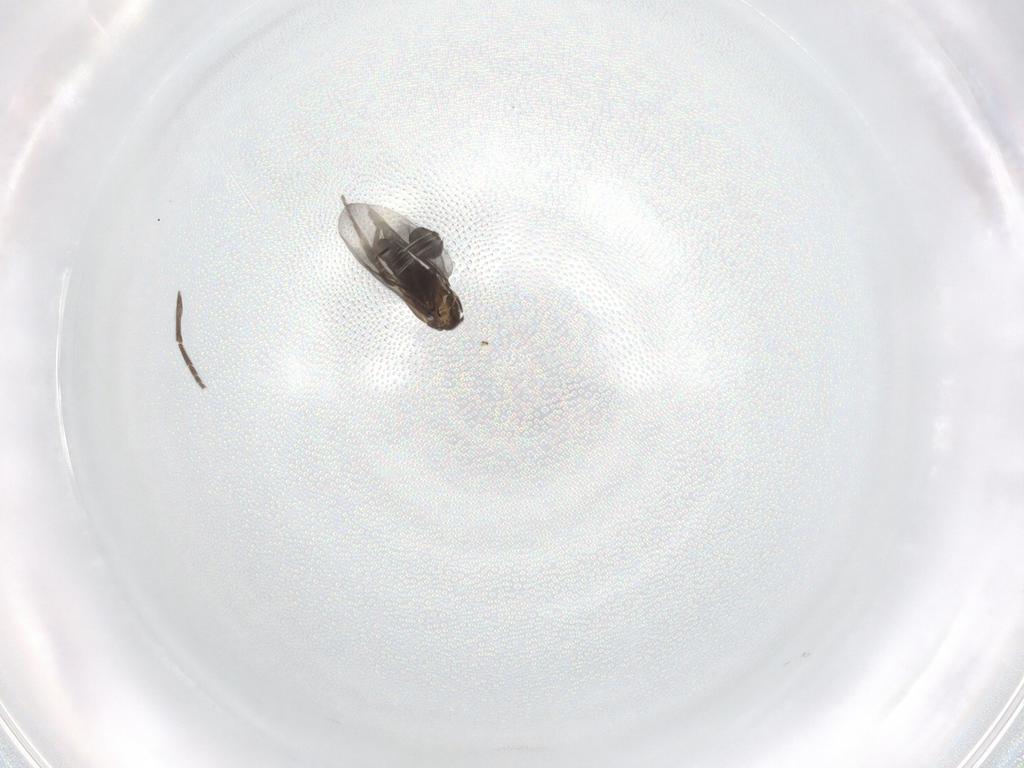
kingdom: Animalia
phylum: Arthropoda
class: Insecta
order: Diptera
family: Phoridae
